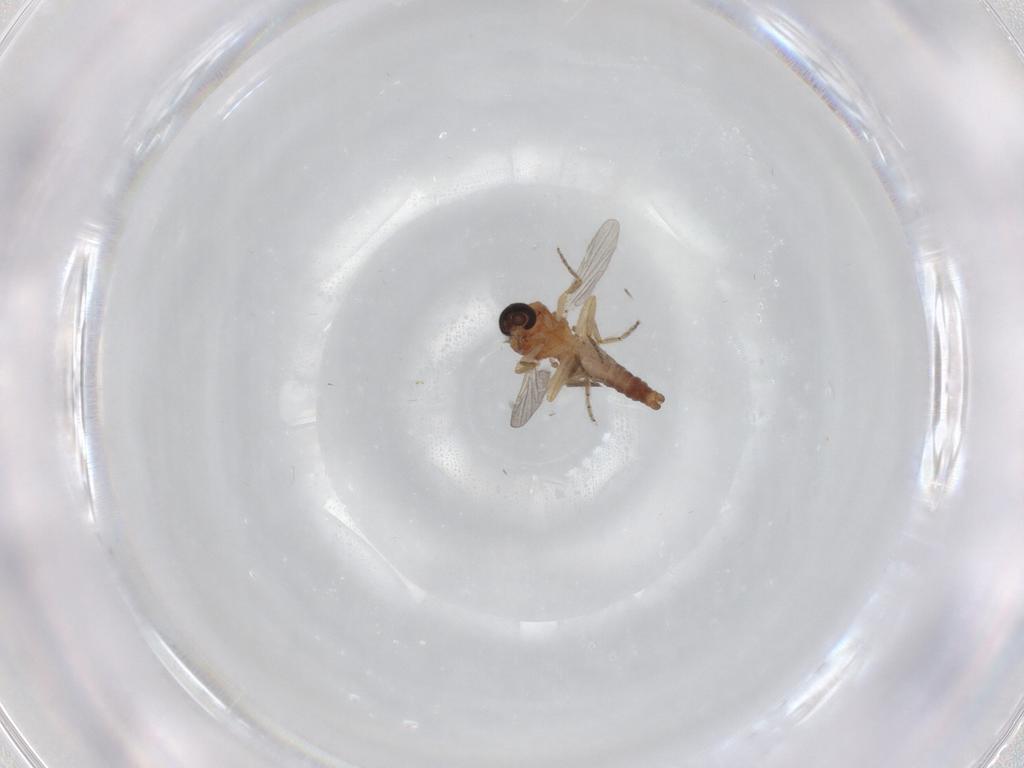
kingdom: Animalia
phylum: Arthropoda
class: Insecta
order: Diptera
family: Ceratopogonidae
